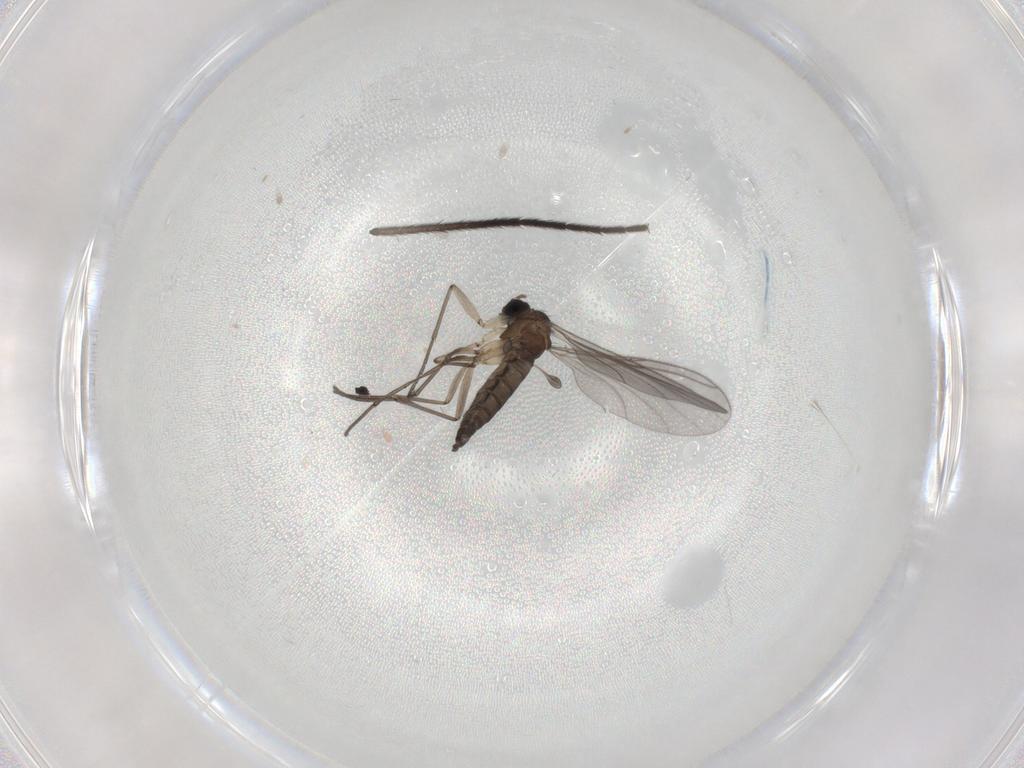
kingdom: Animalia
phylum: Arthropoda
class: Insecta
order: Diptera
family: Sciaridae
